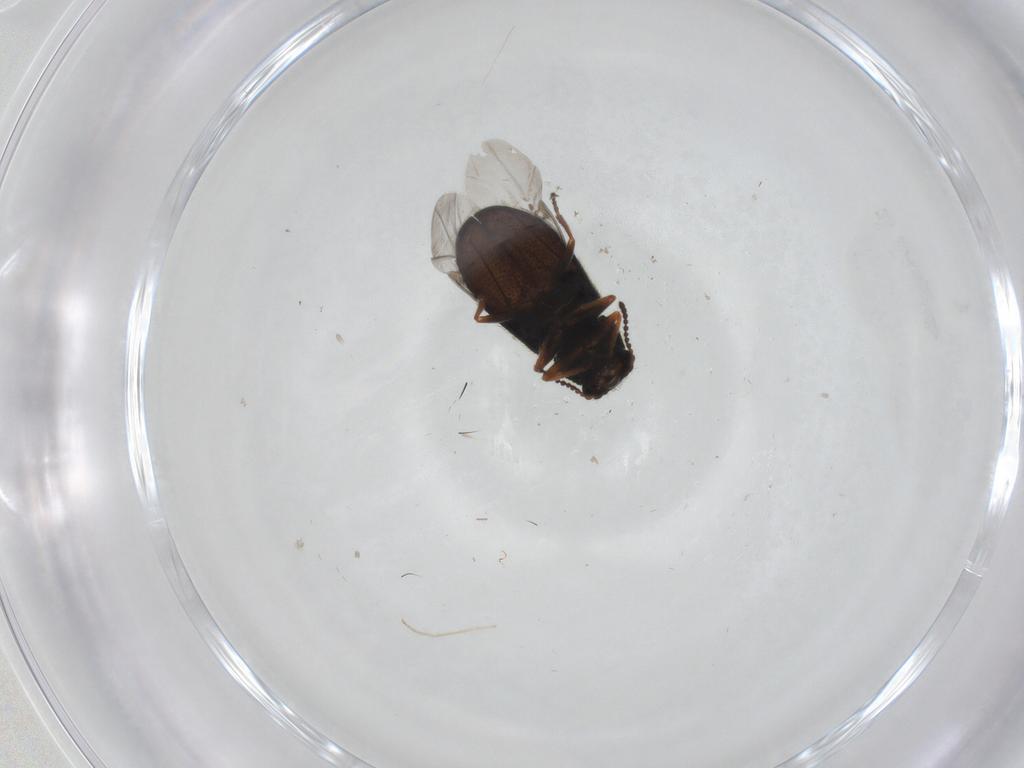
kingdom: Animalia
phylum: Arthropoda
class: Insecta
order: Coleoptera
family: Melyridae
